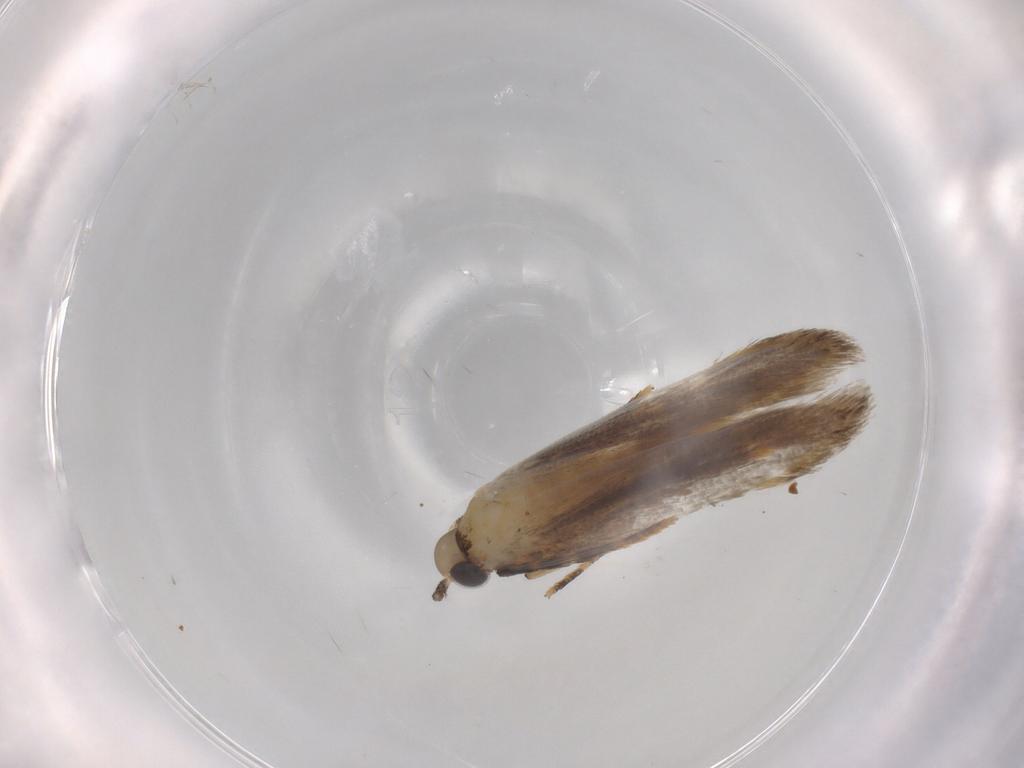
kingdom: Animalia
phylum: Arthropoda
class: Insecta
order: Lepidoptera
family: Autostichidae
